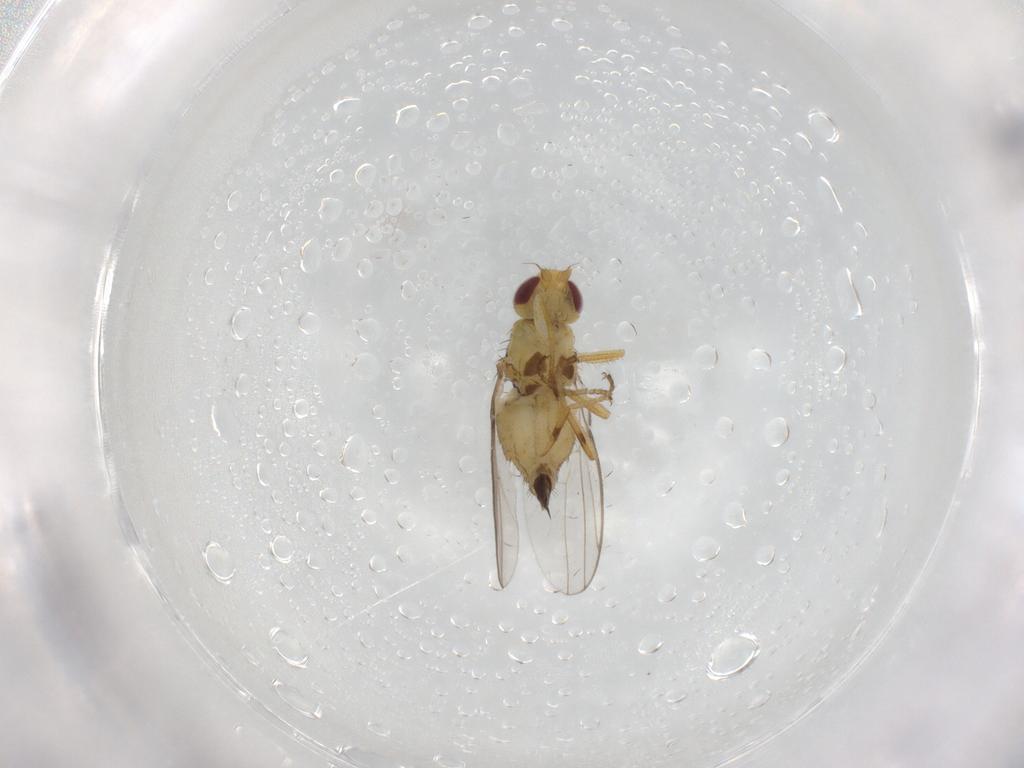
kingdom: Animalia
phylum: Arthropoda
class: Insecta
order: Diptera
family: Chloropidae
